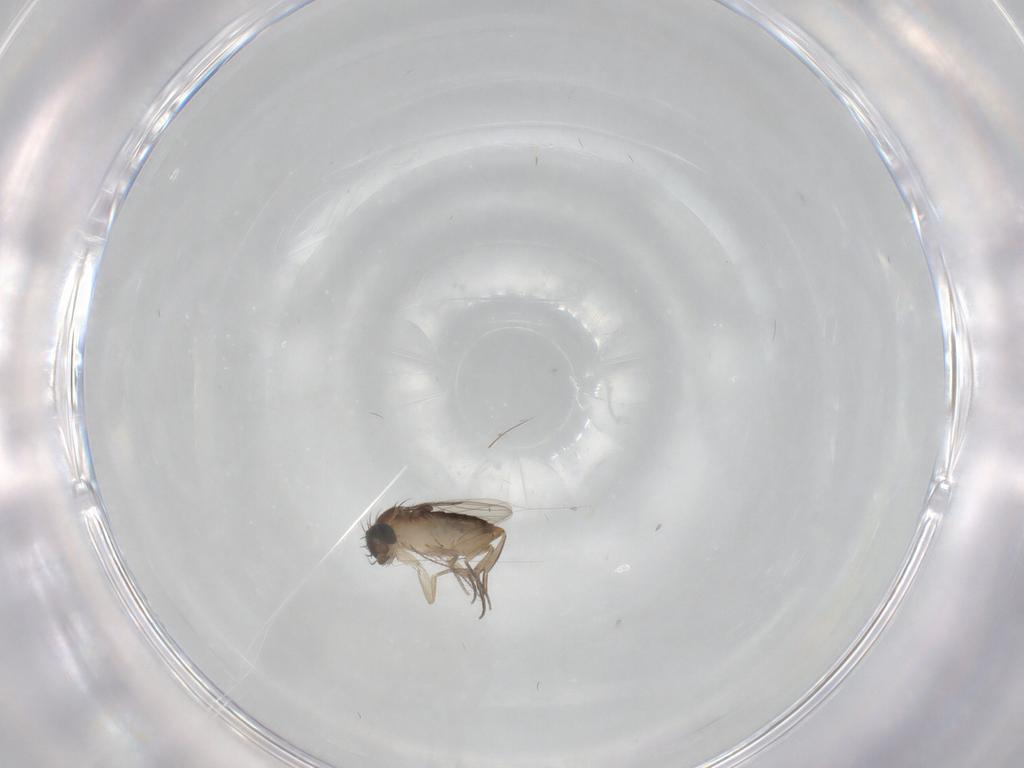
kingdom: Animalia
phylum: Arthropoda
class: Insecta
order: Diptera
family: Phoridae
